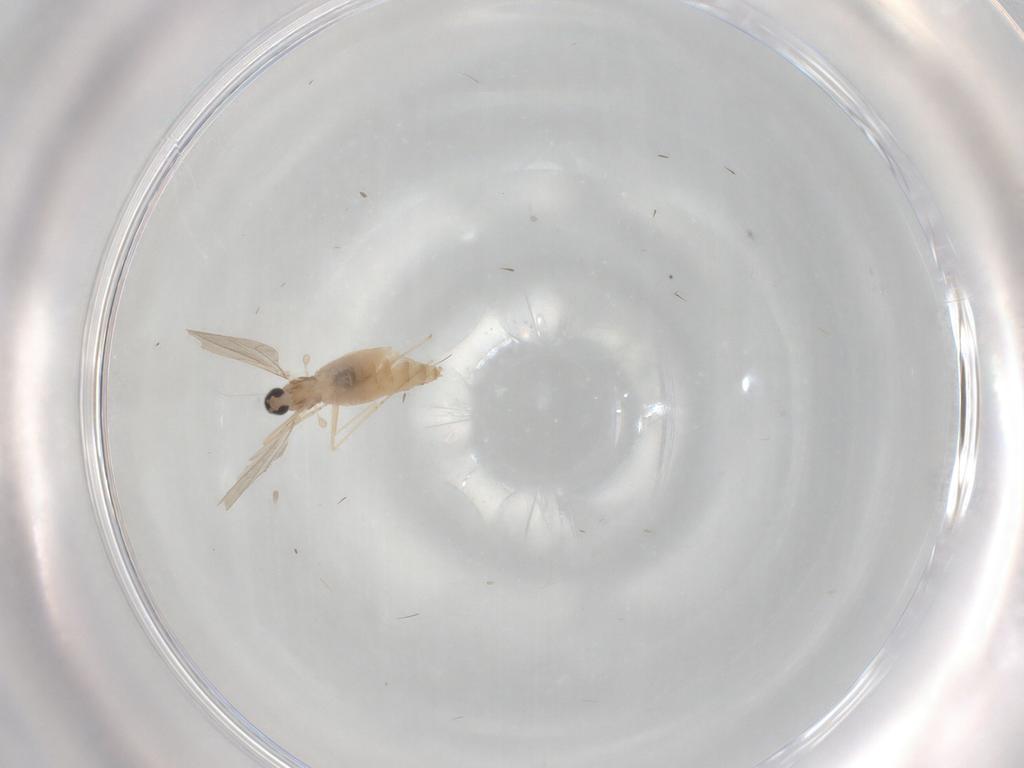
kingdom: Animalia
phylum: Arthropoda
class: Insecta
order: Diptera
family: Cecidomyiidae
